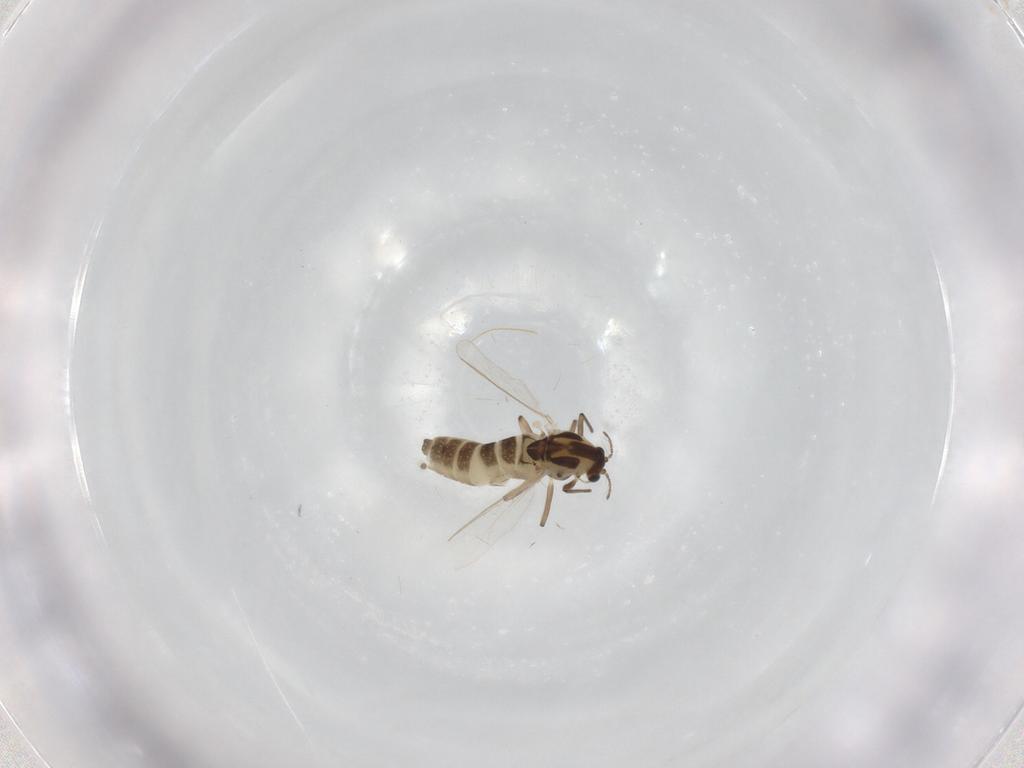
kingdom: Animalia
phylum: Arthropoda
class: Insecta
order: Diptera
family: Chironomidae
